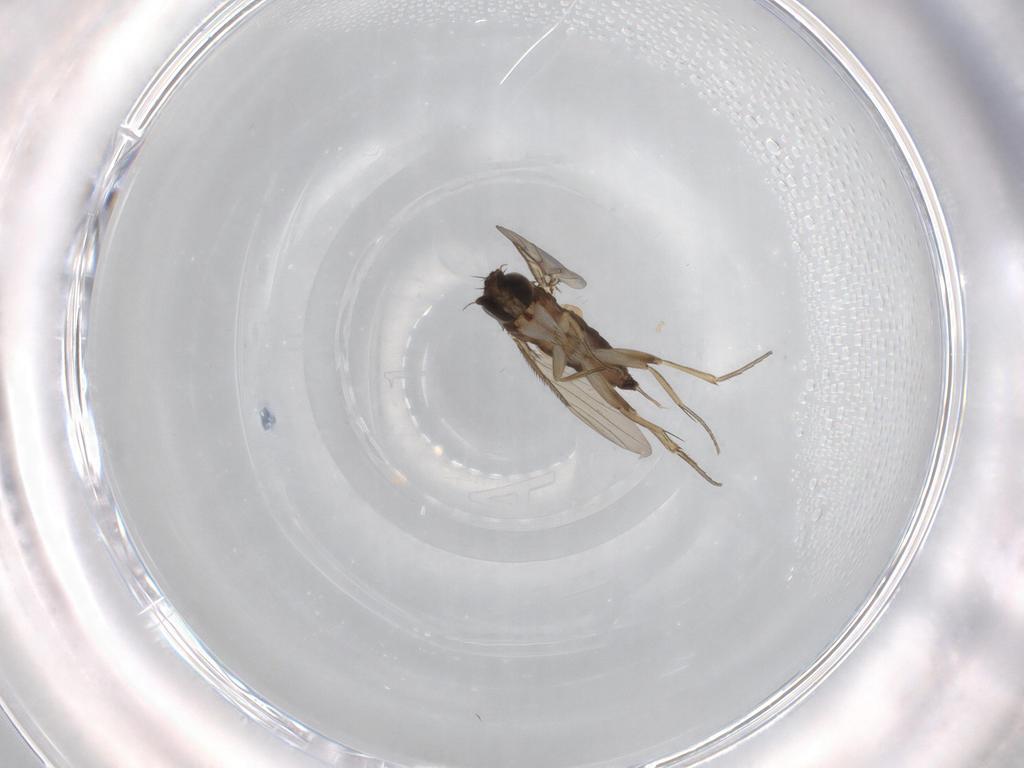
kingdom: Animalia
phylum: Arthropoda
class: Insecta
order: Diptera
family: Phoridae
